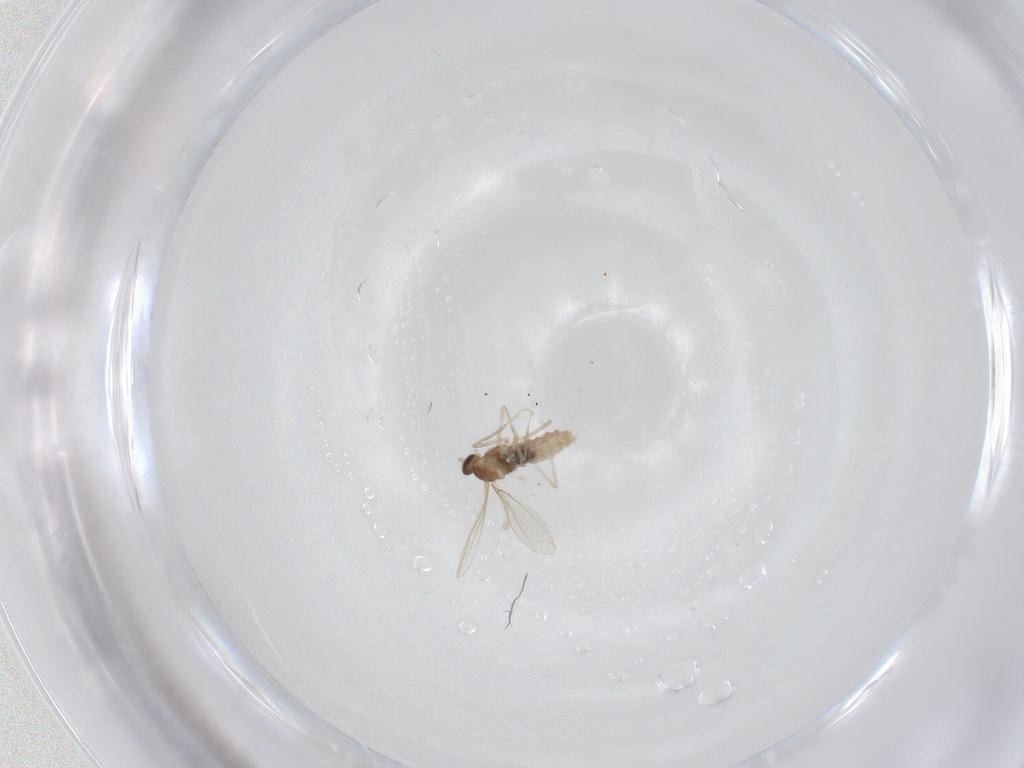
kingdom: Animalia
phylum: Arthropoda
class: Insecta
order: Diptera
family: Cecidomyiidae
